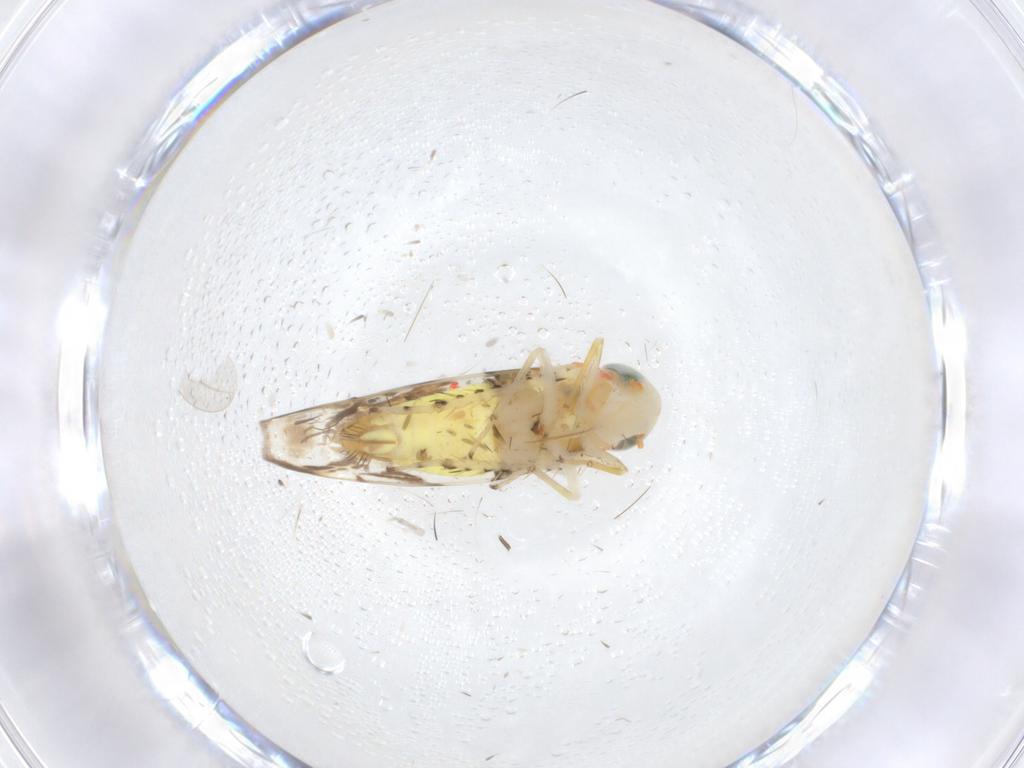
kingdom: Animalia
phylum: Arthropoda
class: Insecta
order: Hemiptera
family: Cicadellidae
